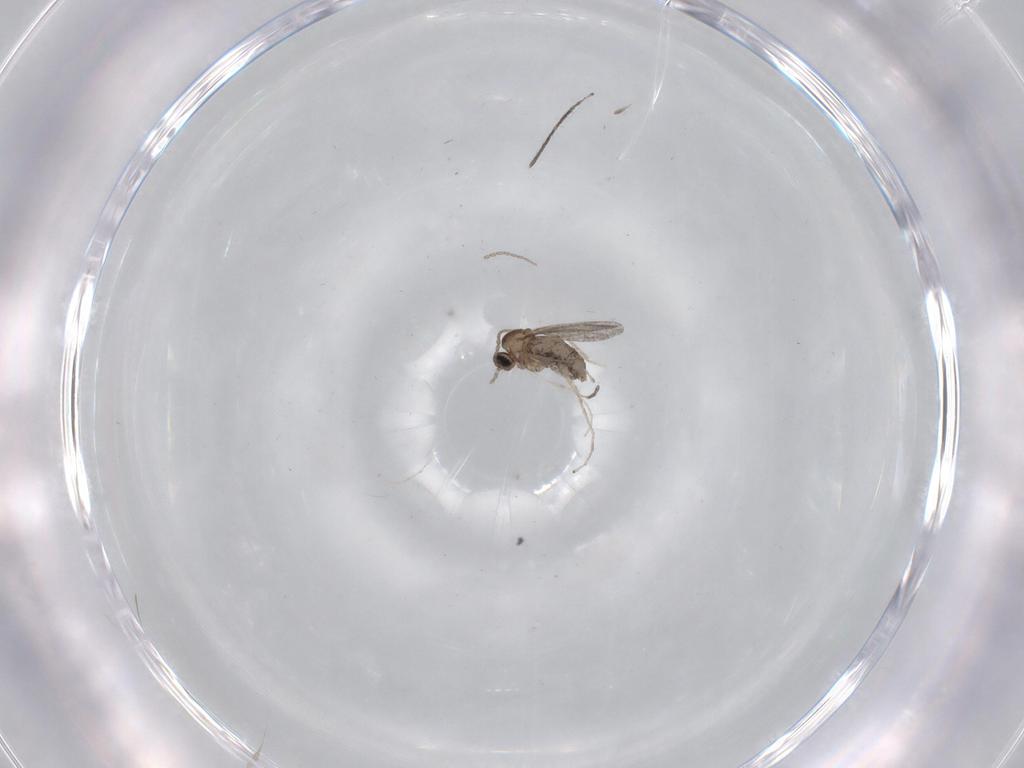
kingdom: Animalia
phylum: Arthropoda
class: Insecta
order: Diptera
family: Cecidomyiidae
